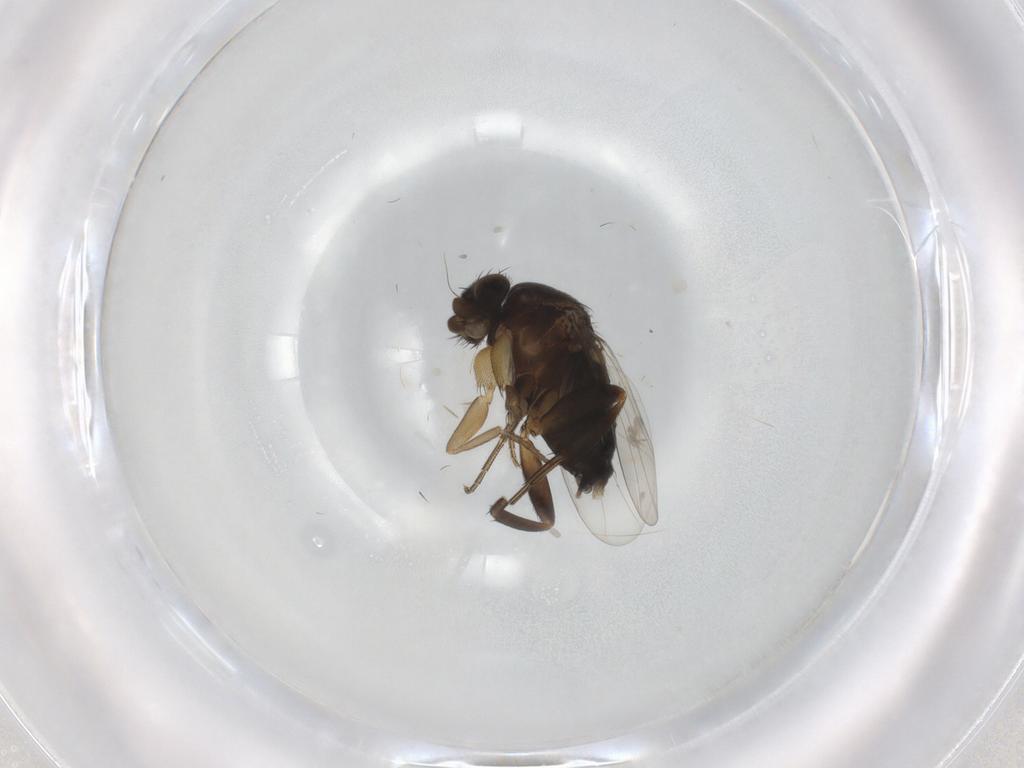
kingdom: Animalia
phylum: Arthropoda
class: Insecta
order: Diptera
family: Phoridae
